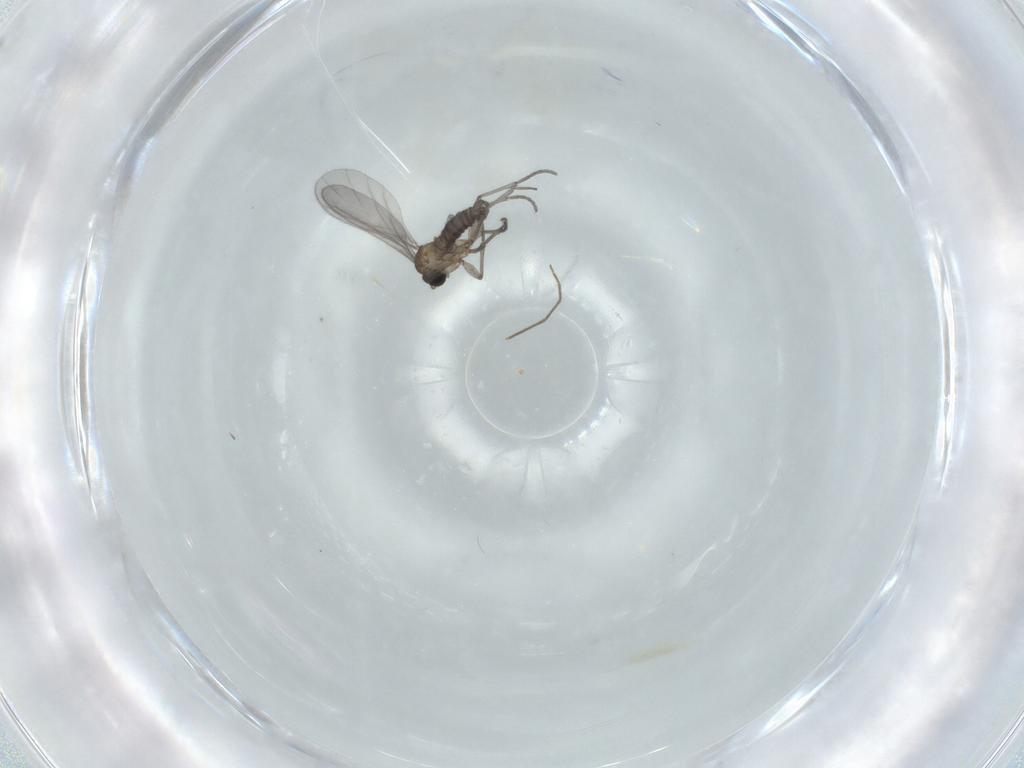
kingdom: Animalia
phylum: Arthropoda
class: Insecta
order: Diptera
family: Sciaridae
